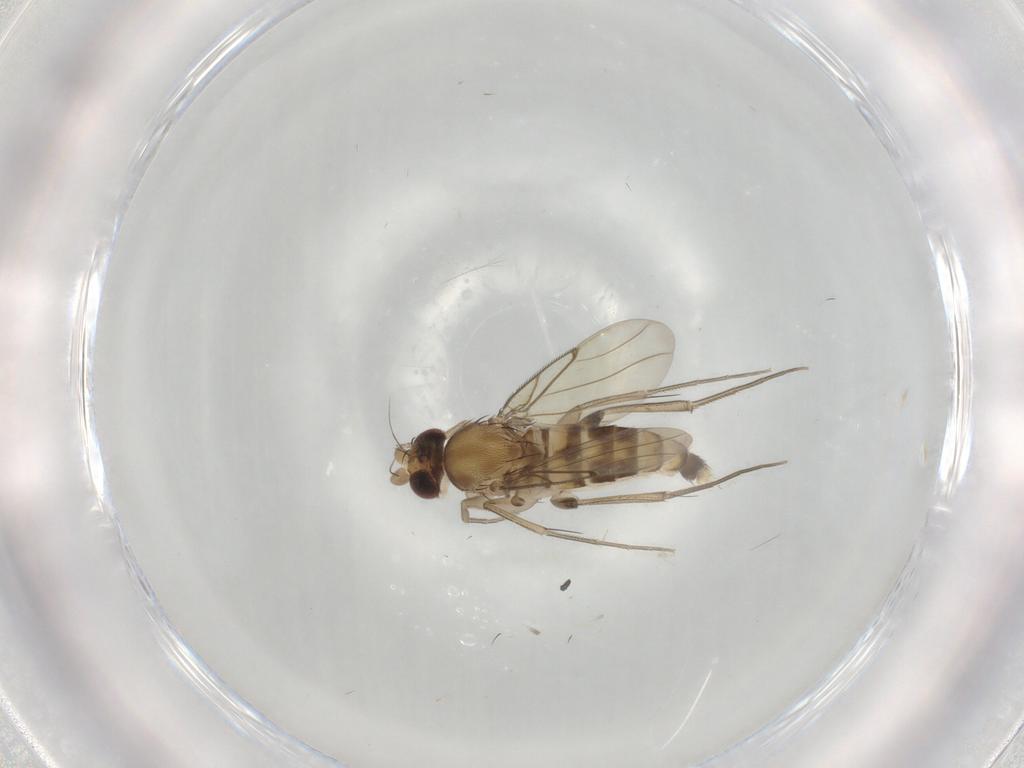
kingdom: Animalia
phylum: Arthropoda
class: Insecta
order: Diptera
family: Phoridae
